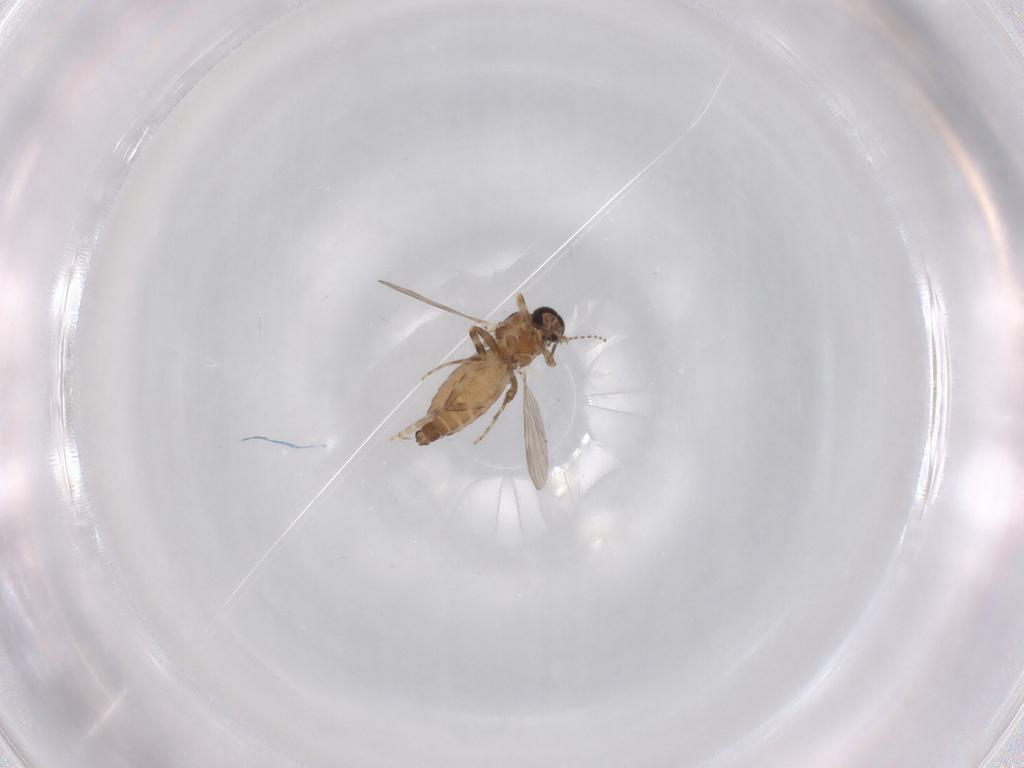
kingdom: Animalia
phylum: Arthropoda
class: Insecta
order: Diptera
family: Ceratopogonidae
